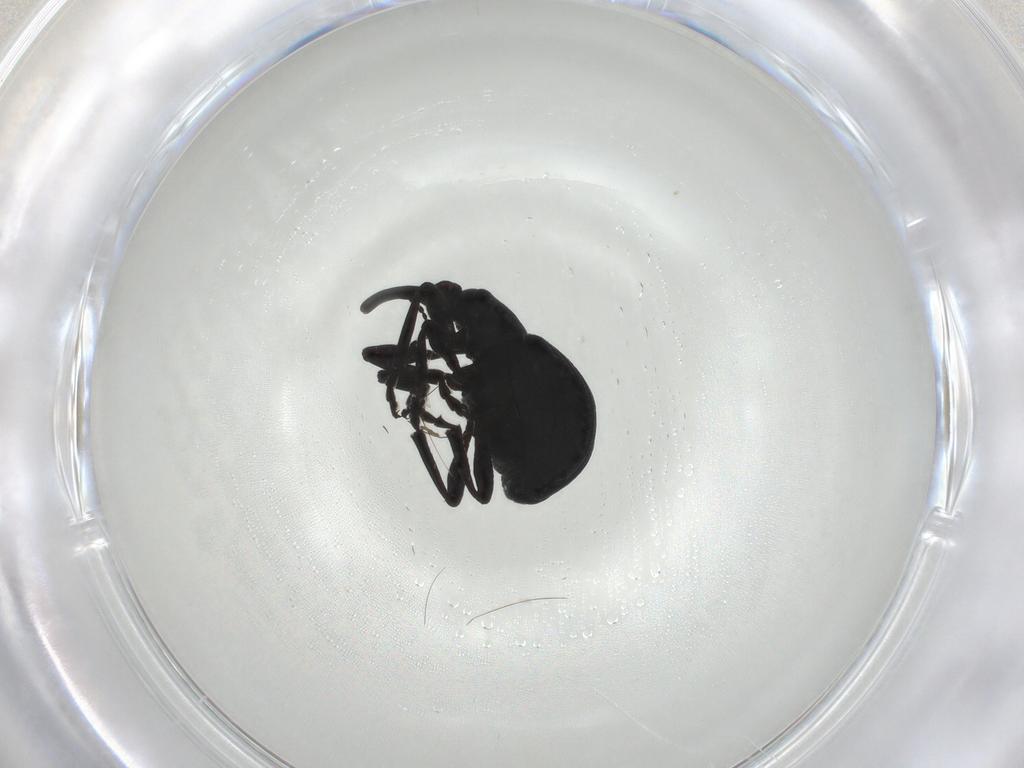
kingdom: Animalia
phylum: Arthropoda
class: Insecta
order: Coleoptera
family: Brentidae
